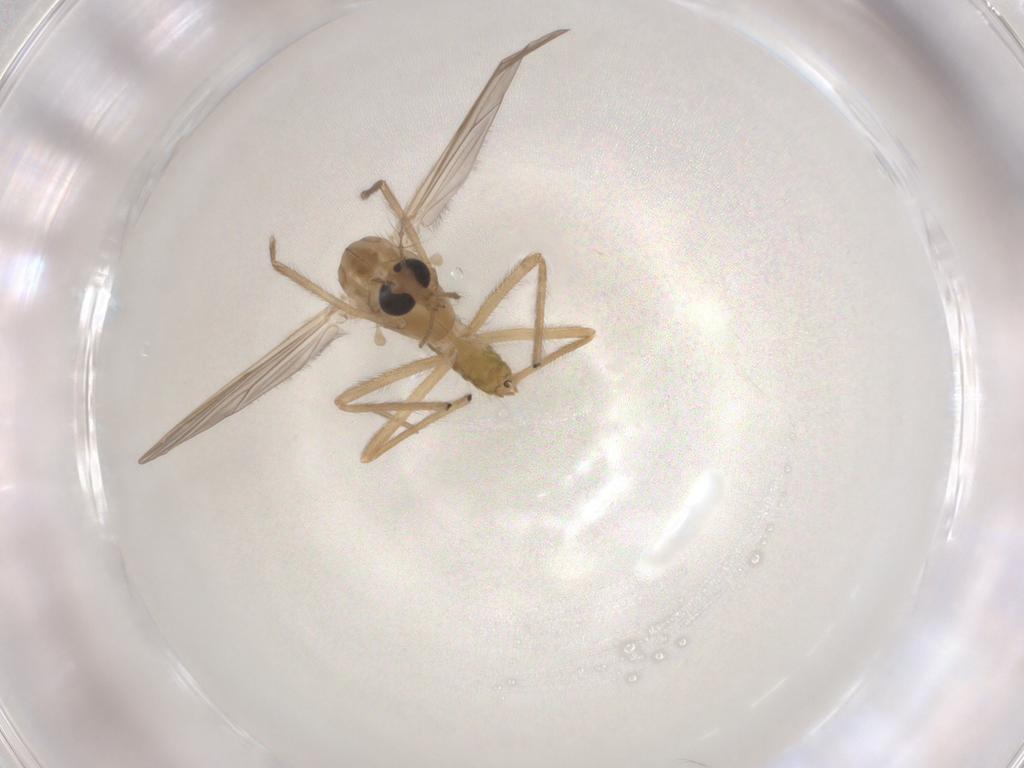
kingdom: Animalia
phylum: Arthropoda
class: Insecta
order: Diptera
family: Chironomidae
